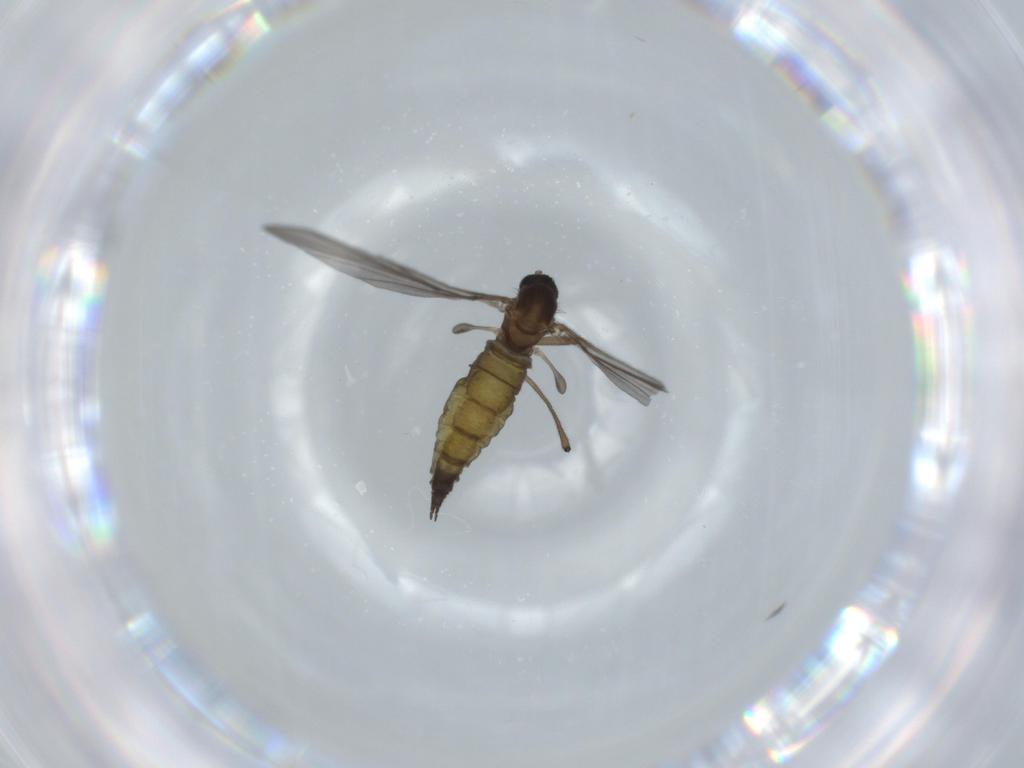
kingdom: Animalia
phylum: Arthropoda
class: Insecta
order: Diptera
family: Sciaridae
